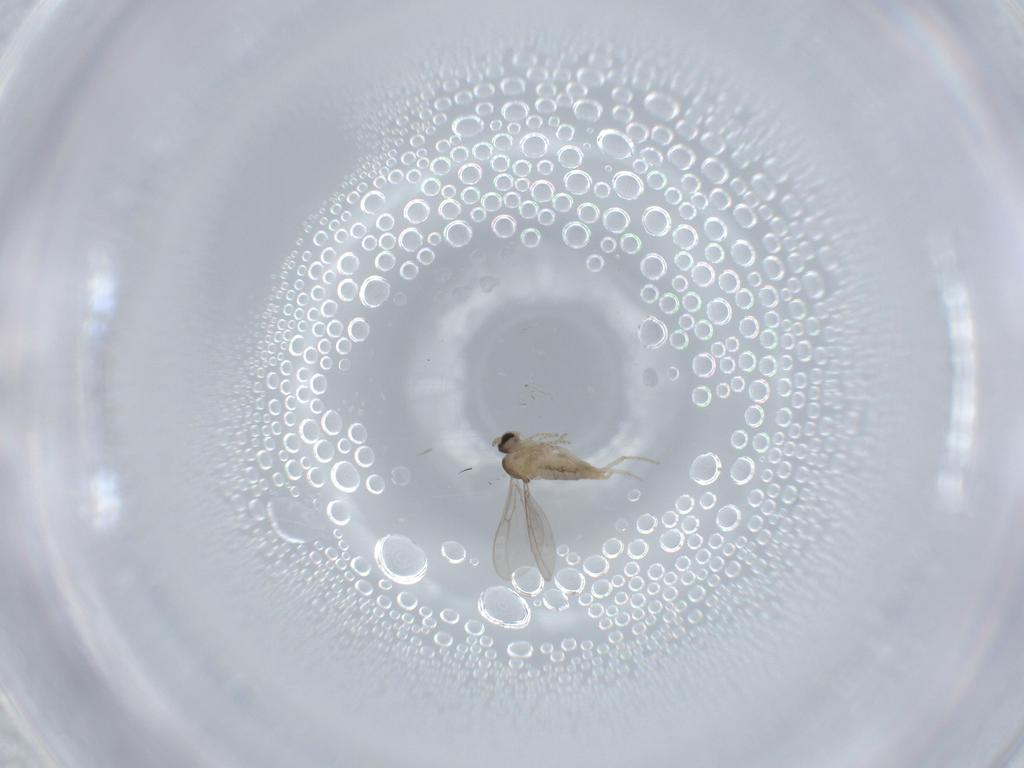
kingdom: Animalia
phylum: Arthropoda
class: Insecta
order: Diptera
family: Cecidomyiidae
